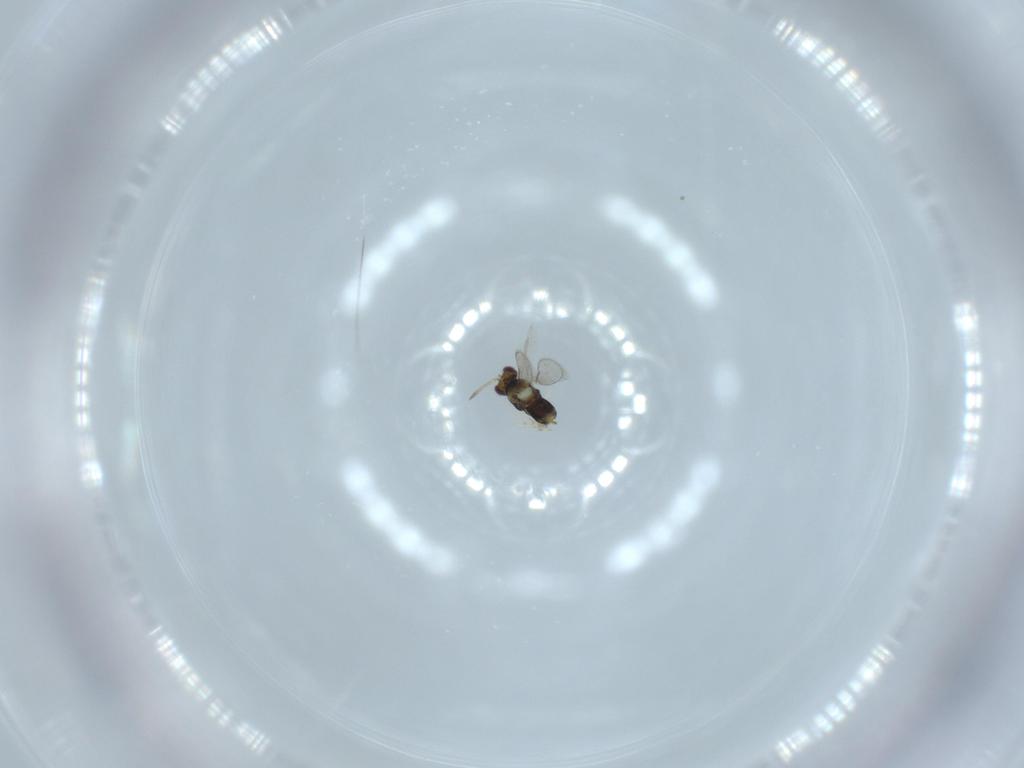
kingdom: Animalia
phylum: Arthropoda
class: Insecta
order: Hymenoptera
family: Aphelinidae
